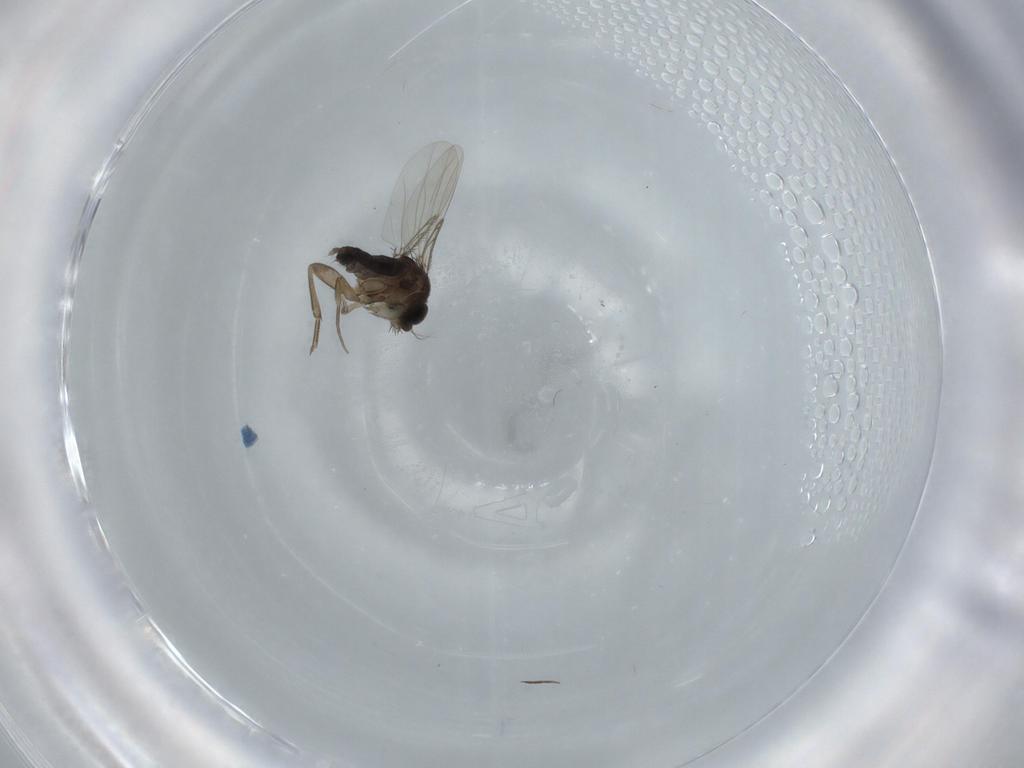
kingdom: Animalia
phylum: Arthropoda
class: Insecta
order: Diptera
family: Phoridae
